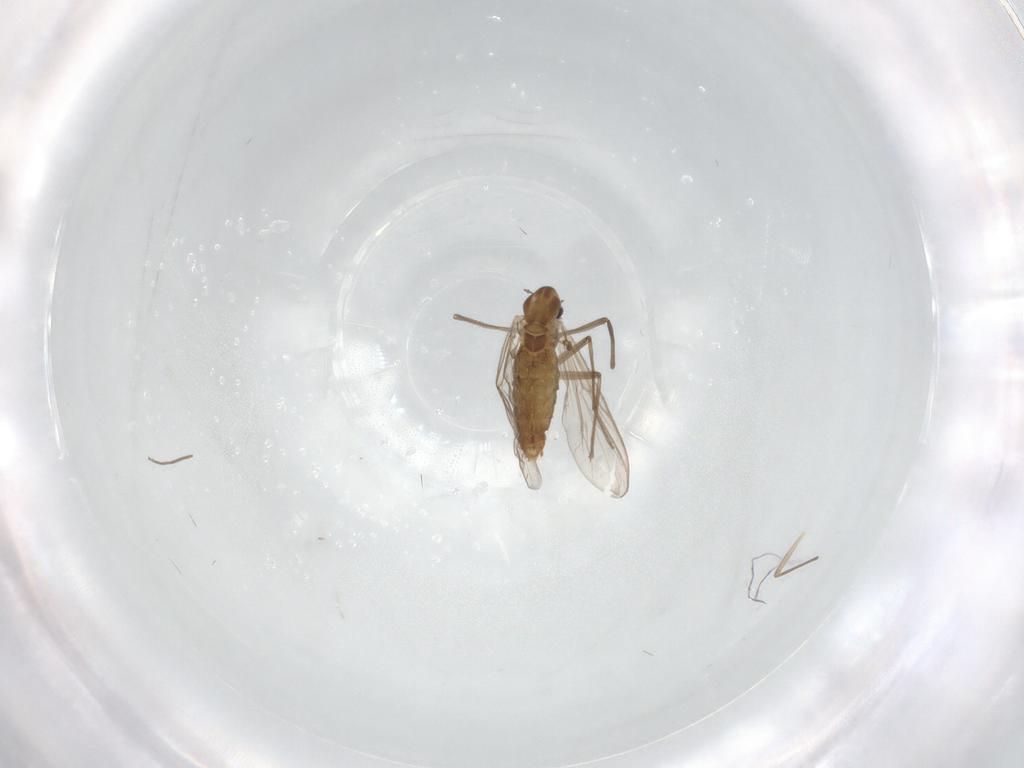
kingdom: Animalia
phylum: Arthropoda
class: Insecta
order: Diptera
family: Chironomidae
